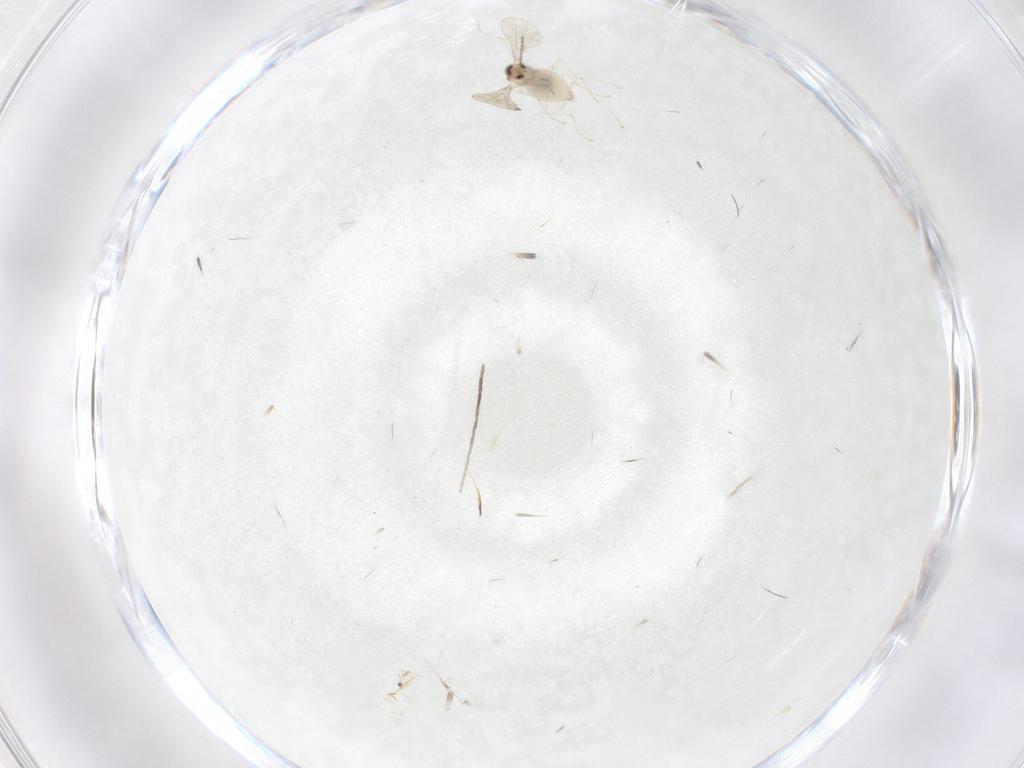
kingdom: Animalia
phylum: Arthropoda
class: Insecta
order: Diptera
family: Cecidomyiidae
